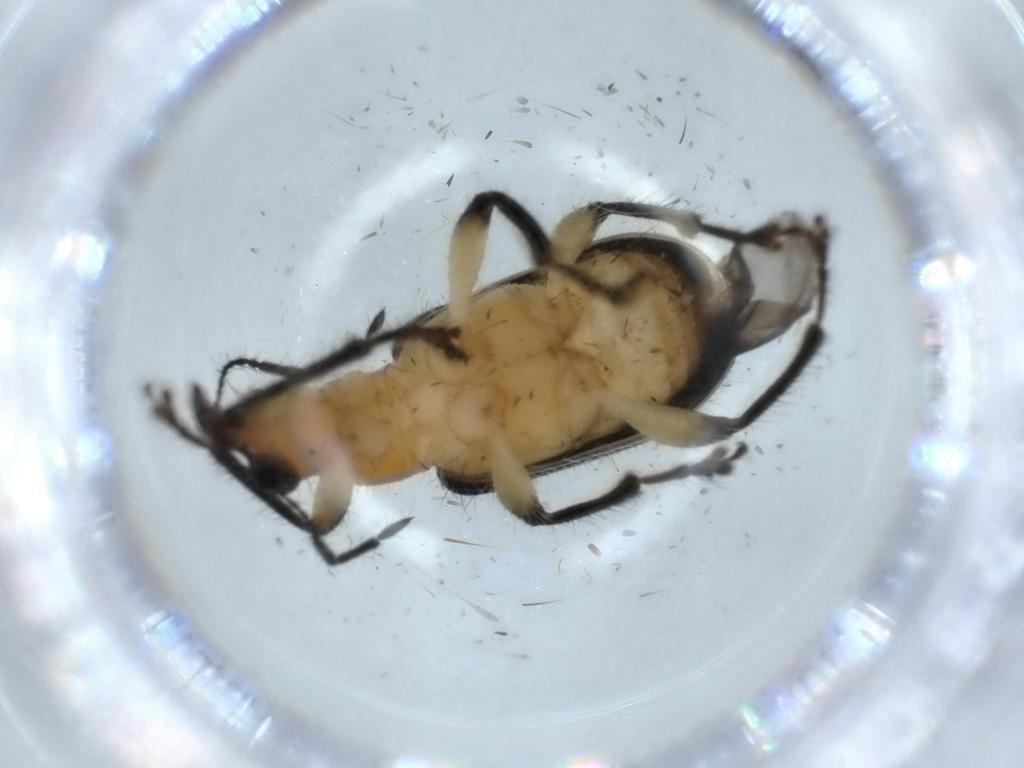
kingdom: Animalia
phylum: Arthropoda
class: Insecta
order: Coleoptera
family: Attelabidae
